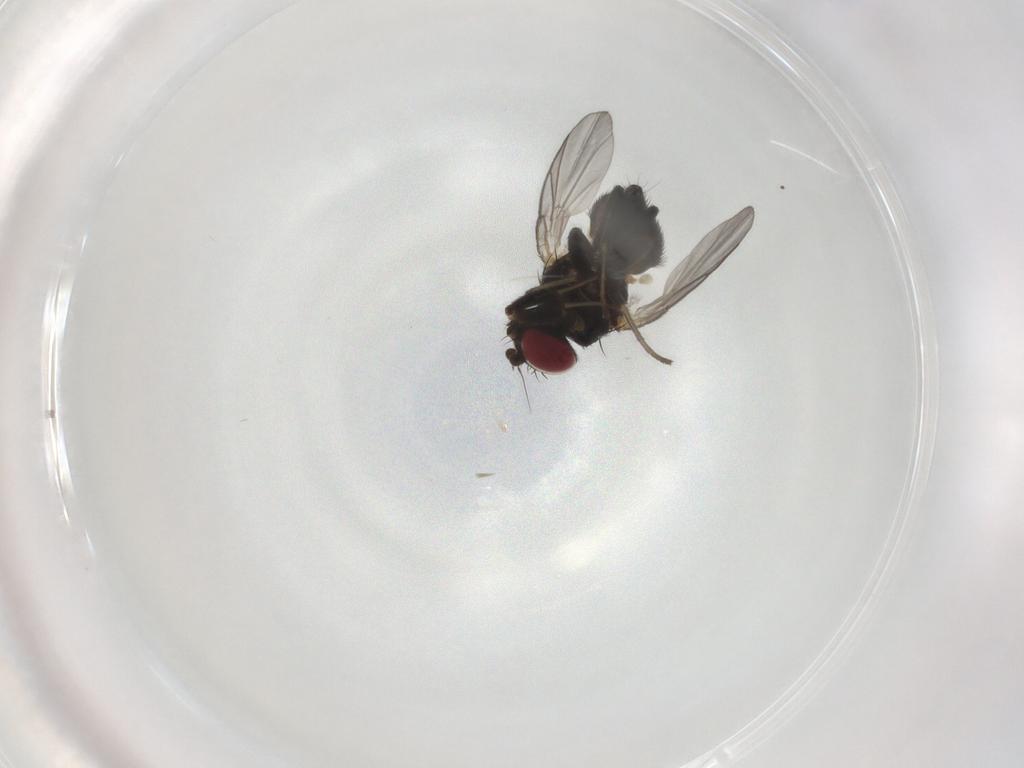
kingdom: Animalia
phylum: Arthropoda
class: Insecta
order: Diptera
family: Agromyzidae
